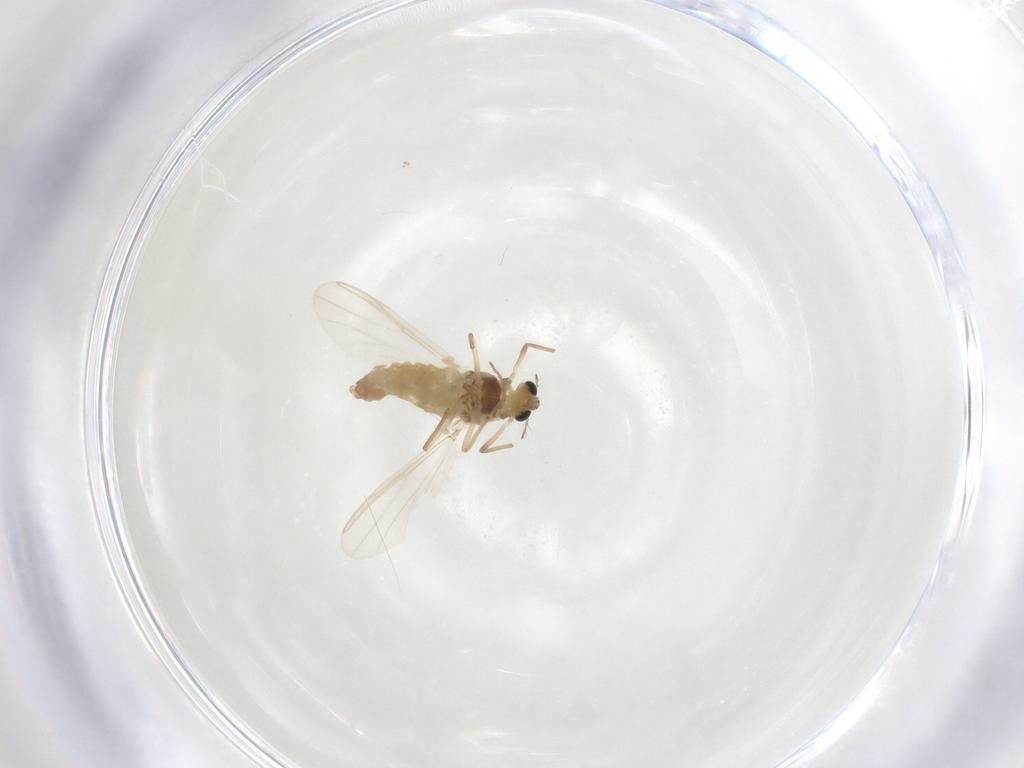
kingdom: Animalia
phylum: Arthropoda
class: Insecta
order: Diptera
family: Chironomidae
